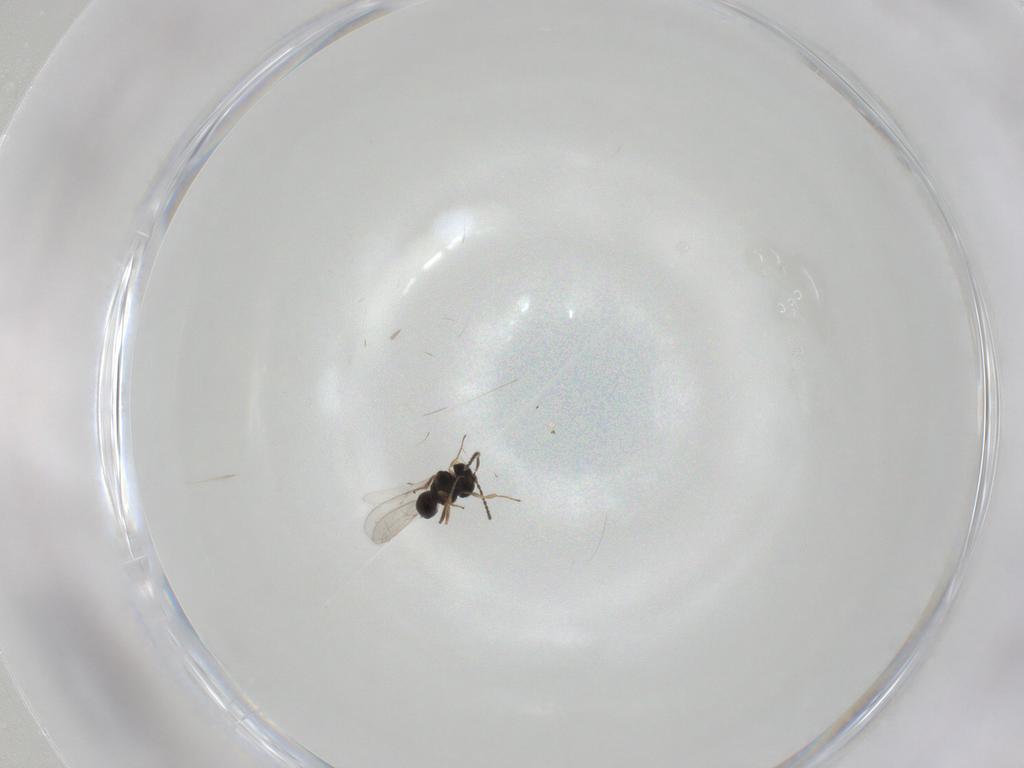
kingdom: Animalia
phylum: Arthropoda
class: Insecta
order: Hymenoptera
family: Scelionidae
